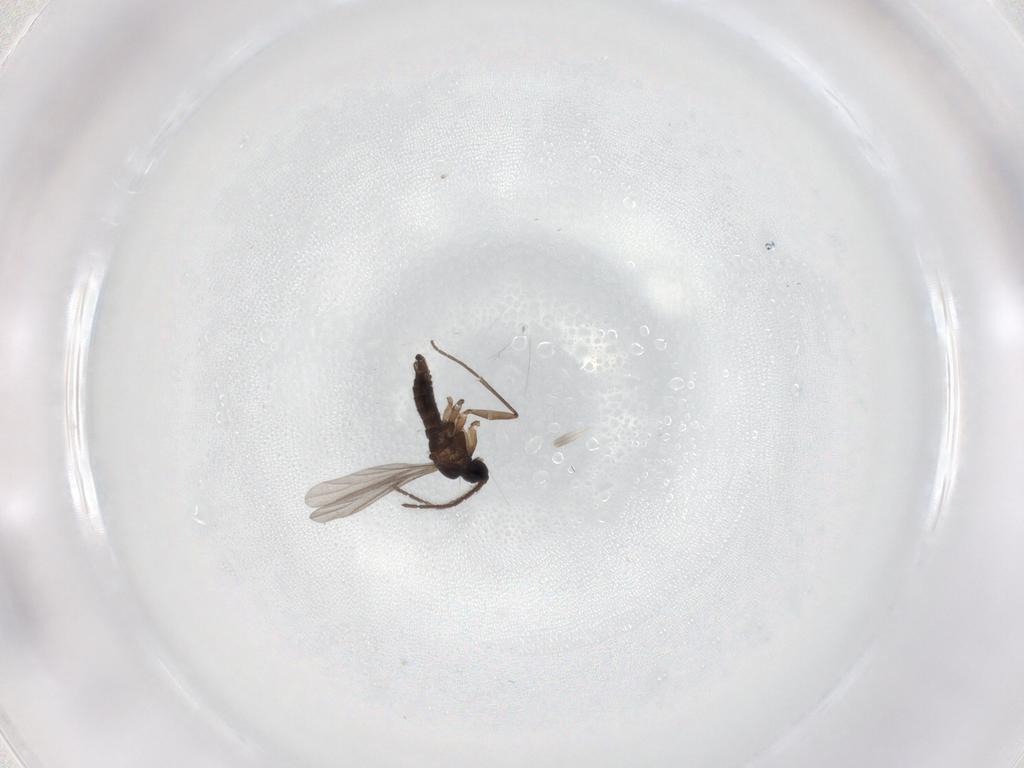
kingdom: Animalia
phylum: Arthropoda
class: Insecta
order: Diptera
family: Sciaridae
